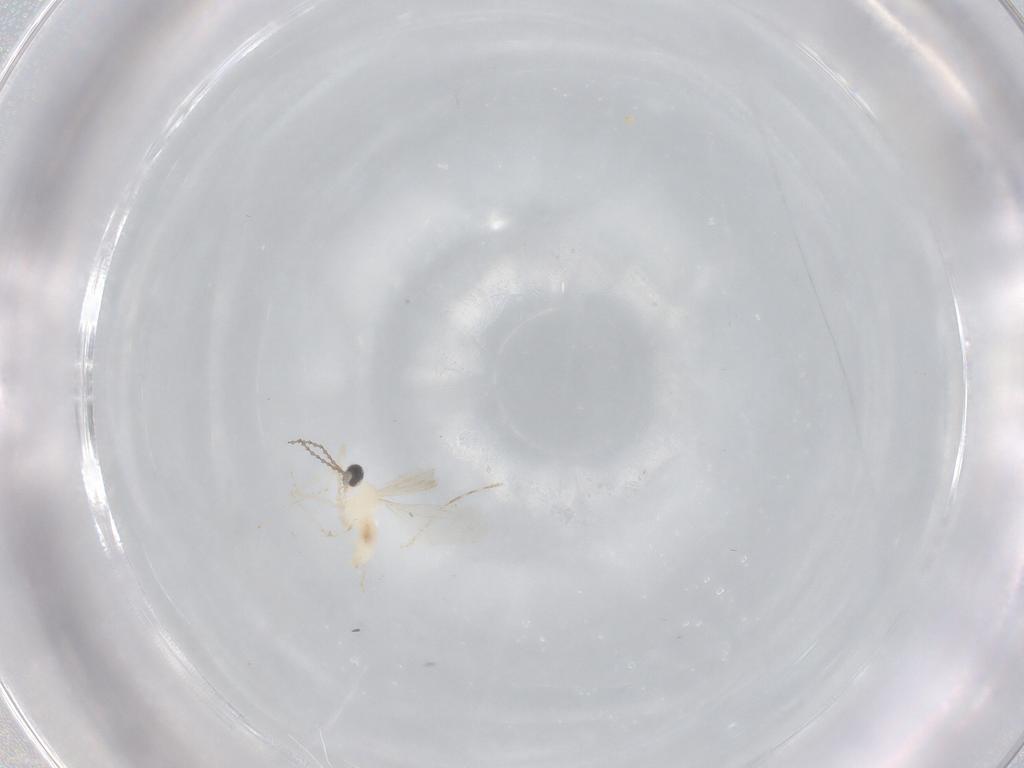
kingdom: Animalia
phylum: Arthropoda
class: Insecta
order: Diptera
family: Cecidomyiidae
